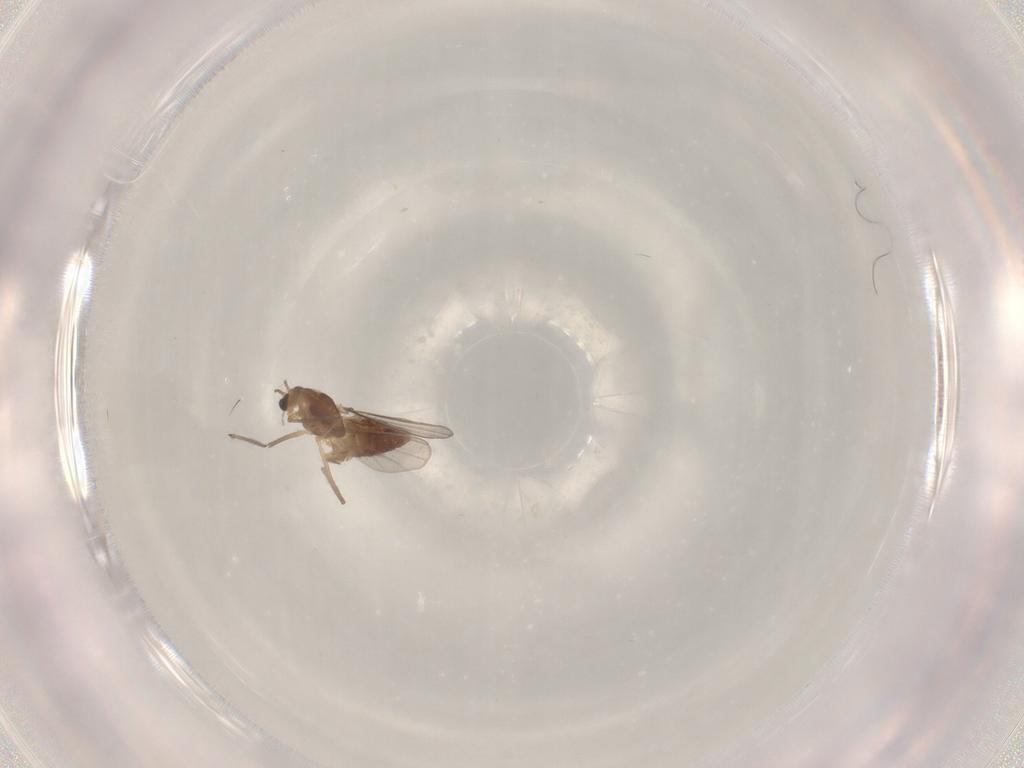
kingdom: Animalia
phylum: Arthropoda
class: Insecta
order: Diptera
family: Chironomidae
